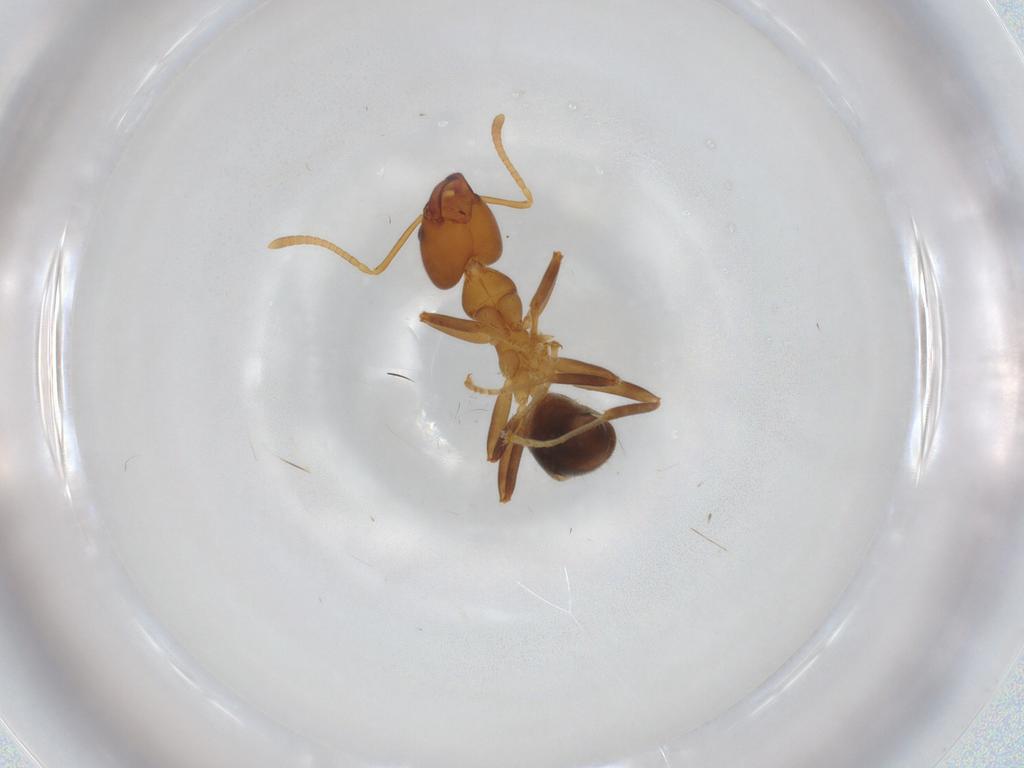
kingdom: Animalia
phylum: Arthropoda
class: Insecta
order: Hymenoptera
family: Formicidae
